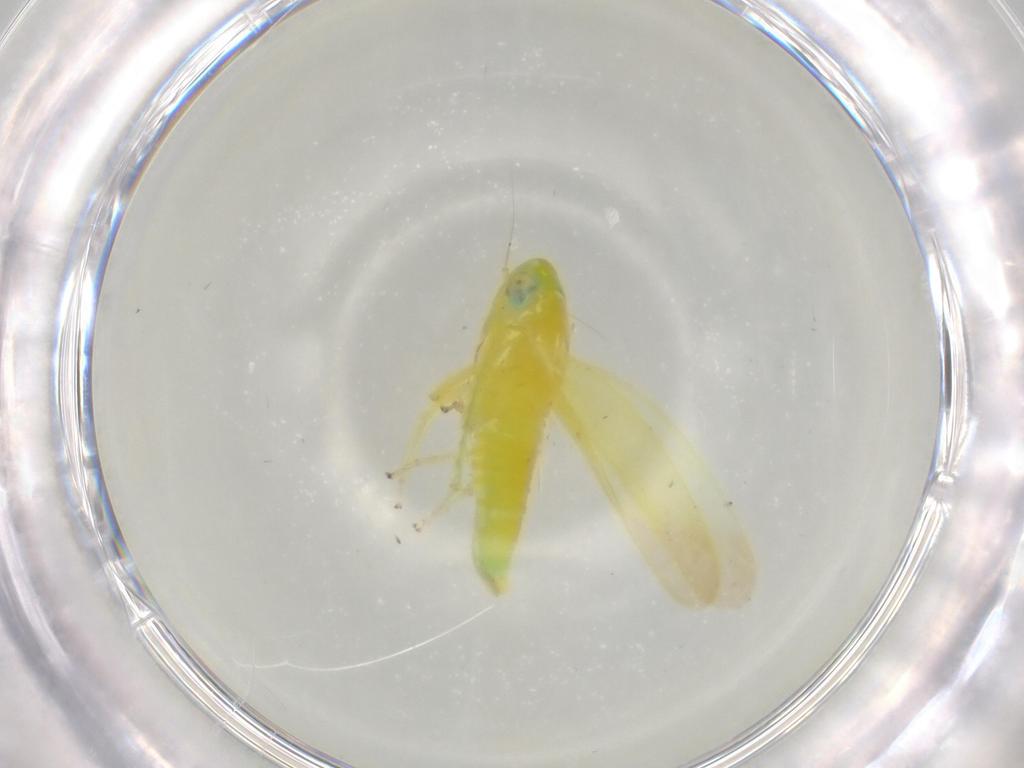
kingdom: Animalia
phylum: Arthropoda
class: Insecta
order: Hemiptera
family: Cicadellidae
